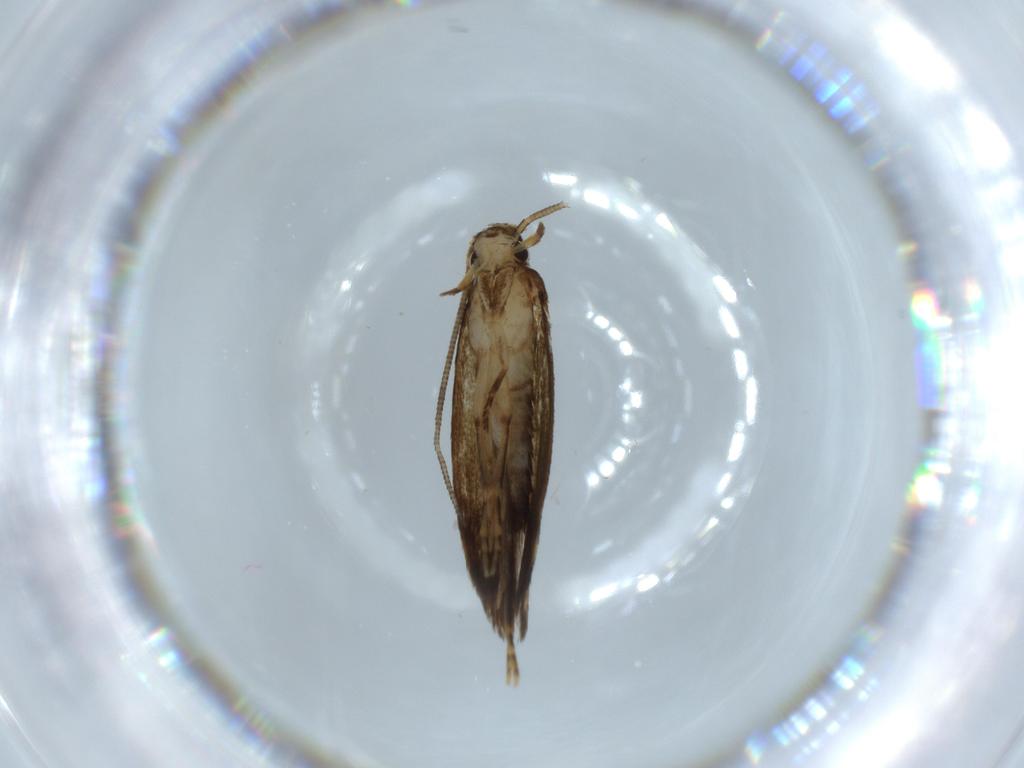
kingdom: Animalia
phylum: Arthropoda
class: Insecta
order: Lepidoptera
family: Tineidae
